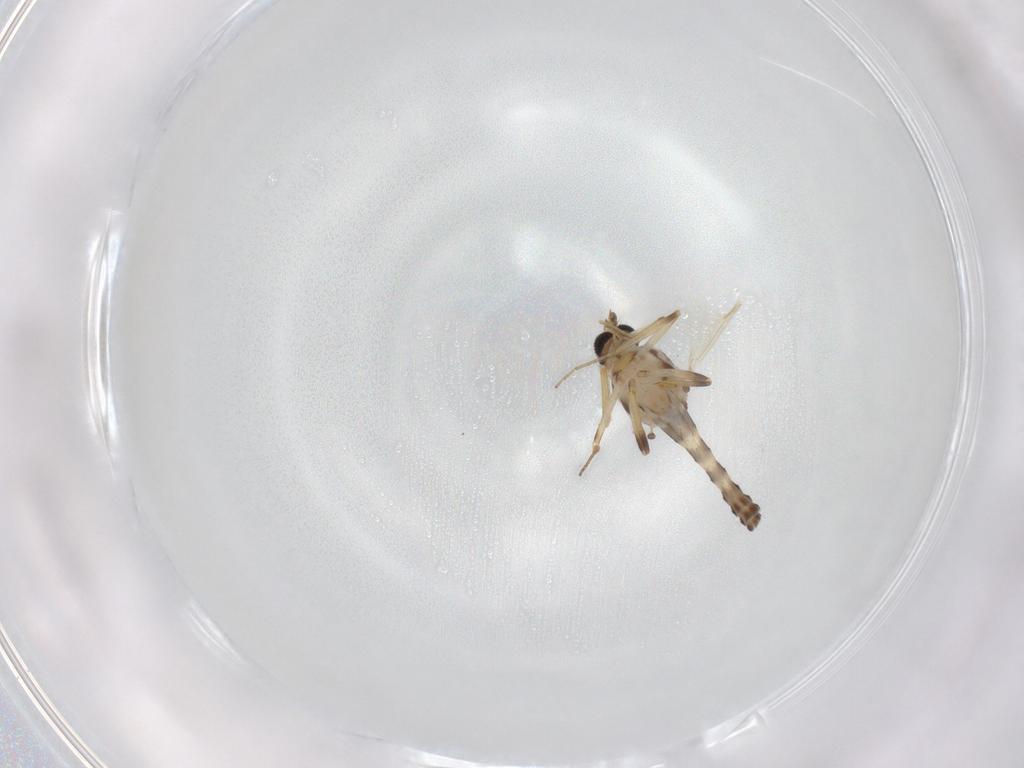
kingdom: Animalia
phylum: Arthropoda
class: Insecta
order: Diptera
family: Ceratopogonidae
